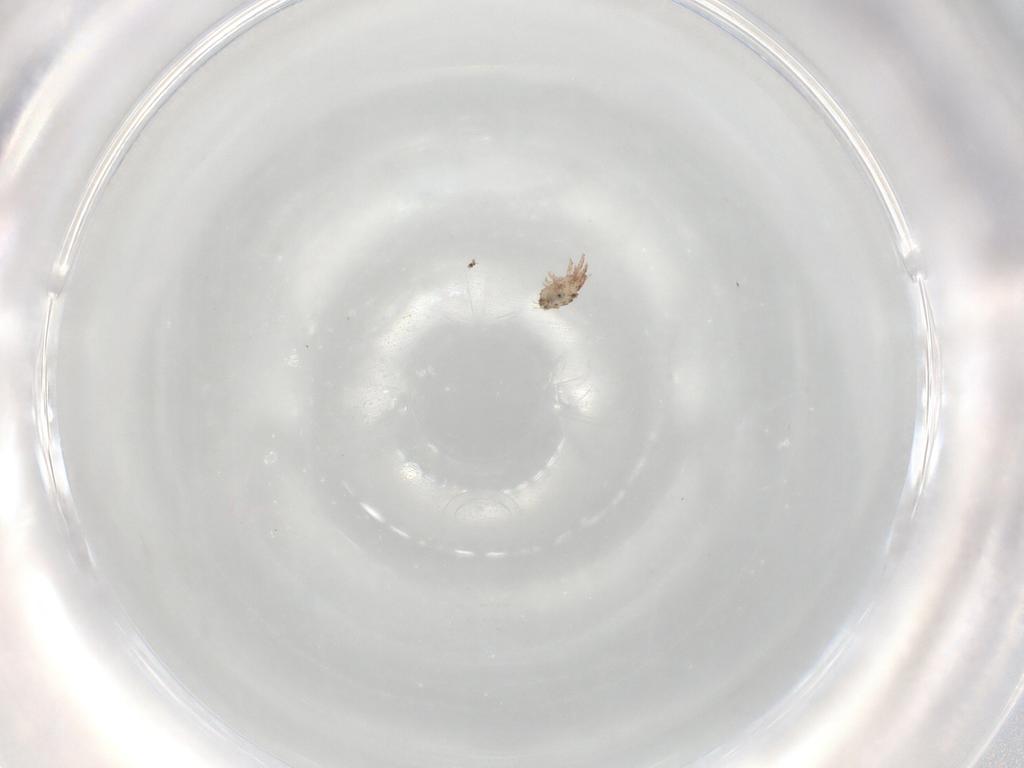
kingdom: Animalia
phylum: Arthropoda
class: Arachnida
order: Sarcoptiformes
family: Crotoniidae
